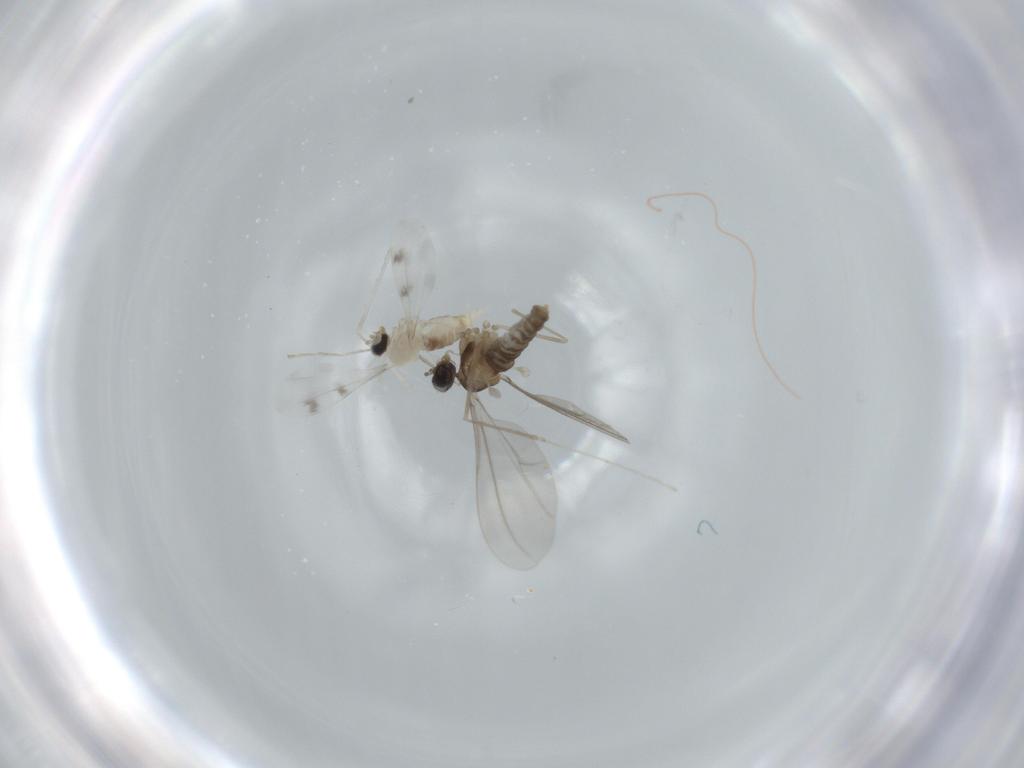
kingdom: Animalia
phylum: Arthropoda
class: Insecta
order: Diptera
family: Cecidomyiidae
